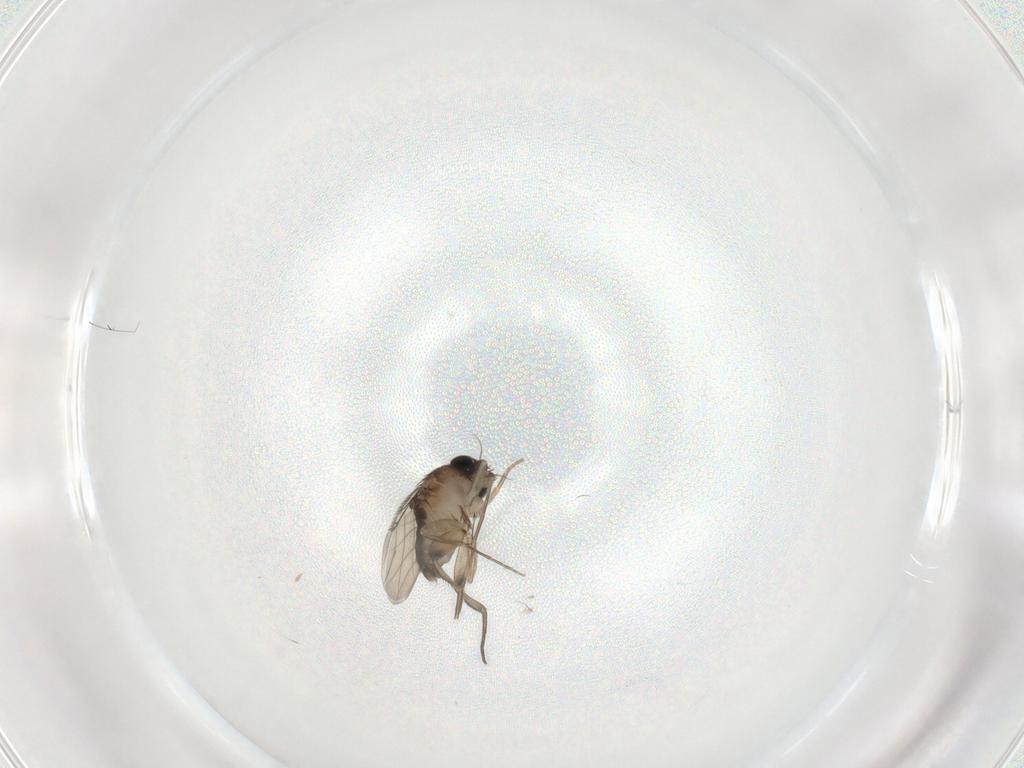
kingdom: Animalia
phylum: Arthropoda
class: Insecta
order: Diptera
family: Phoridae
